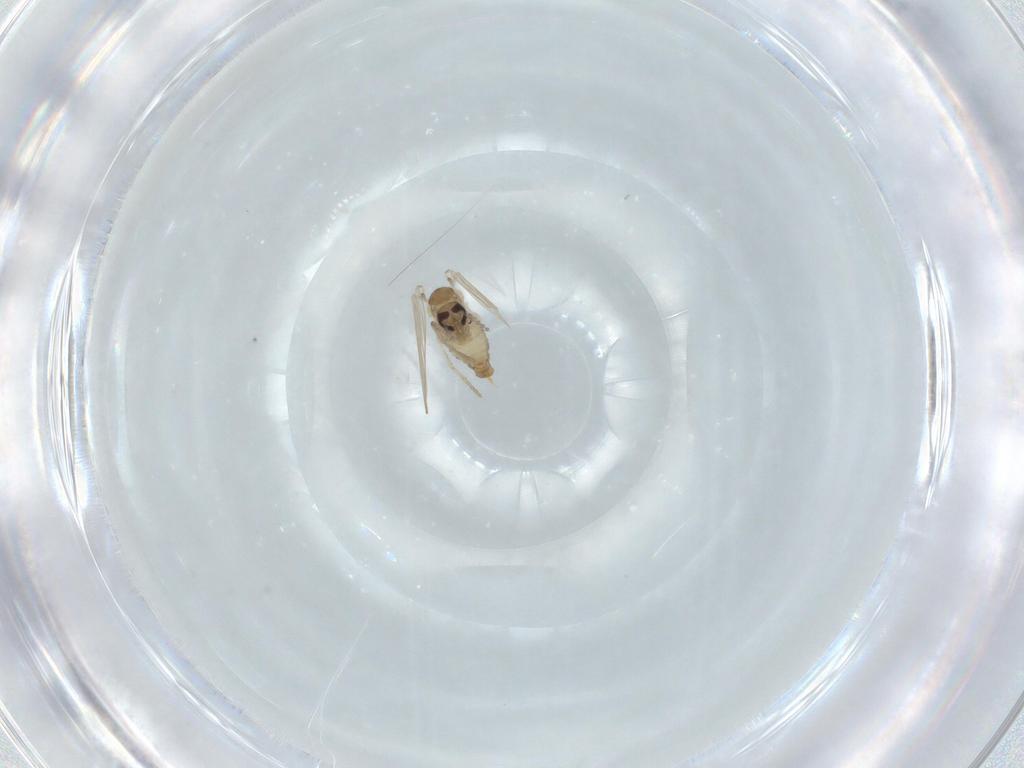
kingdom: Animalia
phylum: Arthropoda
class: Insecta
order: Diptera
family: Psychodidae
